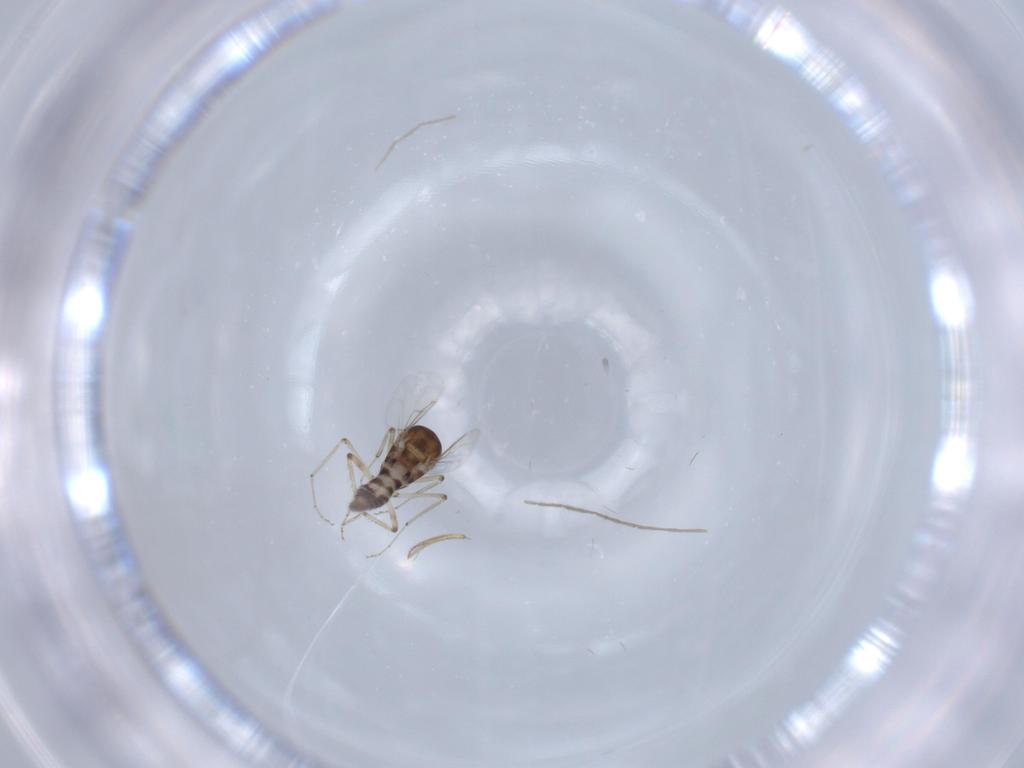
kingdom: Animalia
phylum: Arthropoda
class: Insecta
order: Diptera
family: Ceratopogonidae
